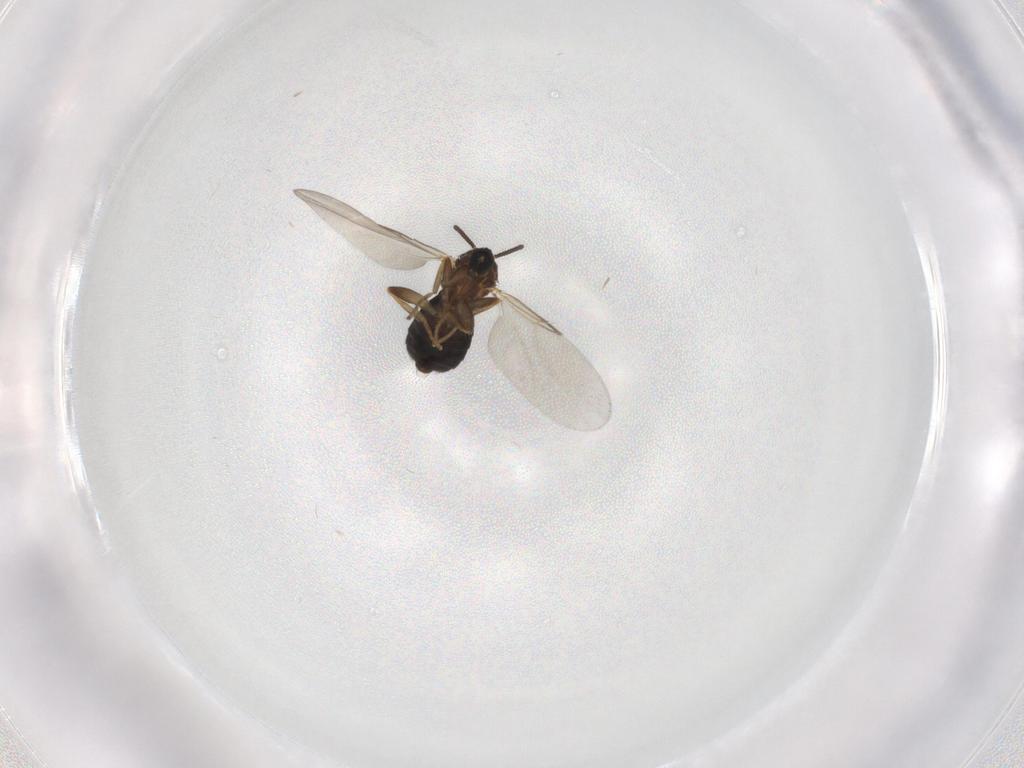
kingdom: Animalia
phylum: Arthropoda
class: Insecta
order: Diptera
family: Scatopsidae
